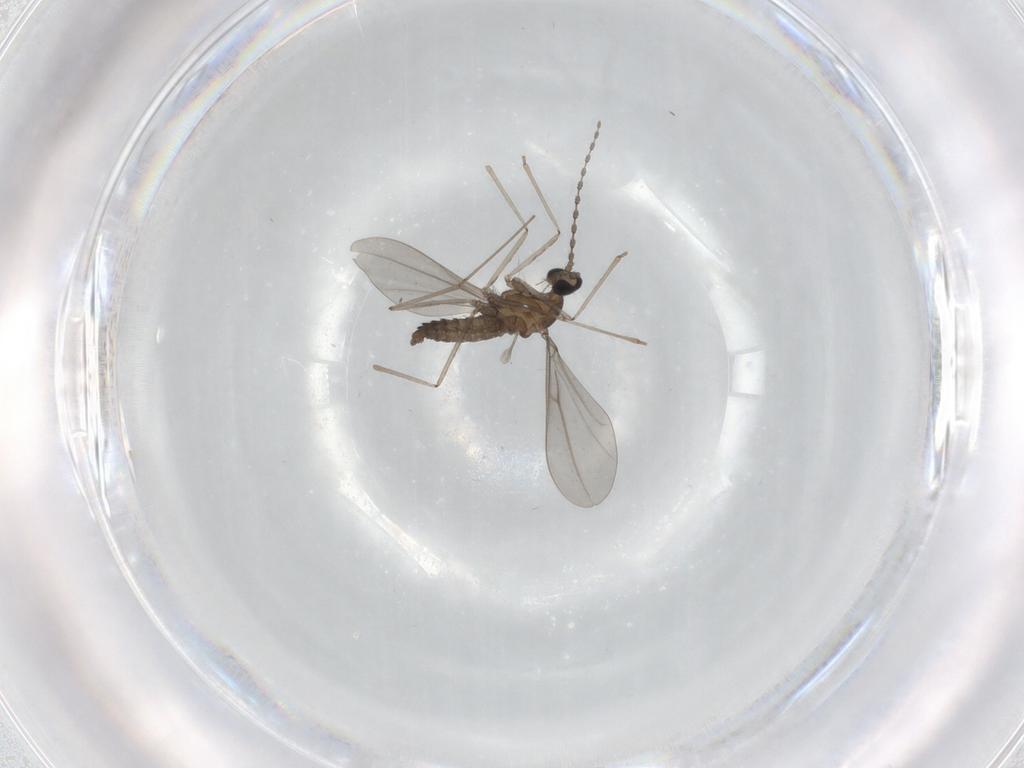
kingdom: Animalia
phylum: Arthropoda
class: Insecta
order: Diptera
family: Cecidomyiidae
